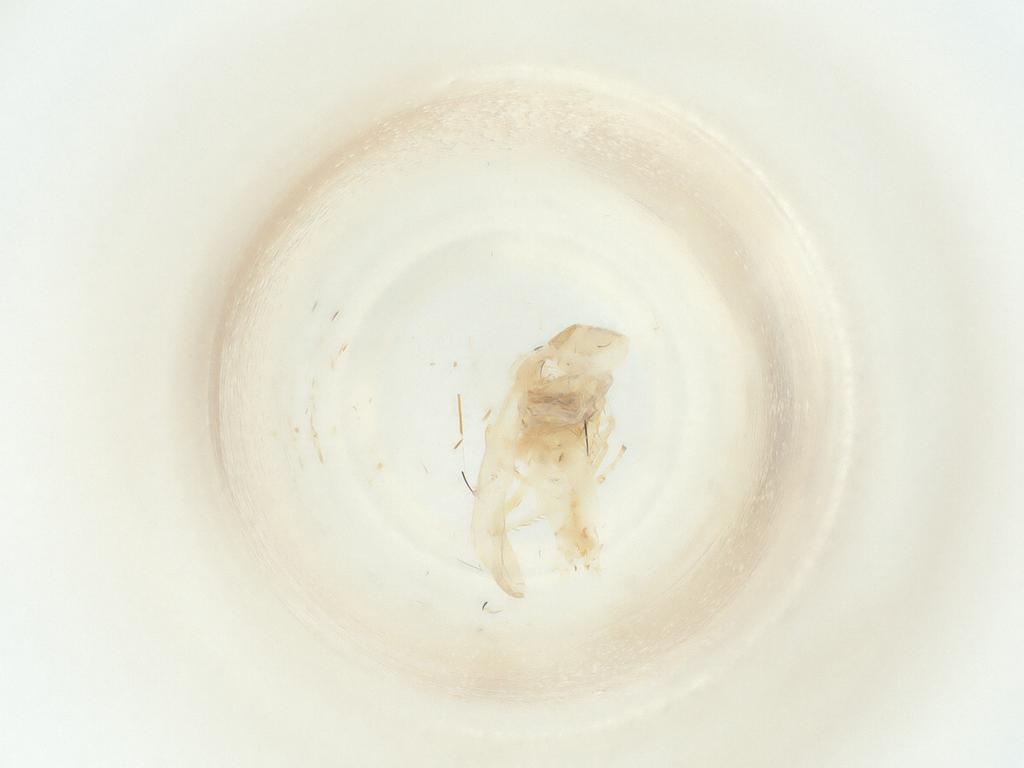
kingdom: Animalia
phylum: Arthropoda
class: Insecta
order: Hemiptera
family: Cicadellidae
